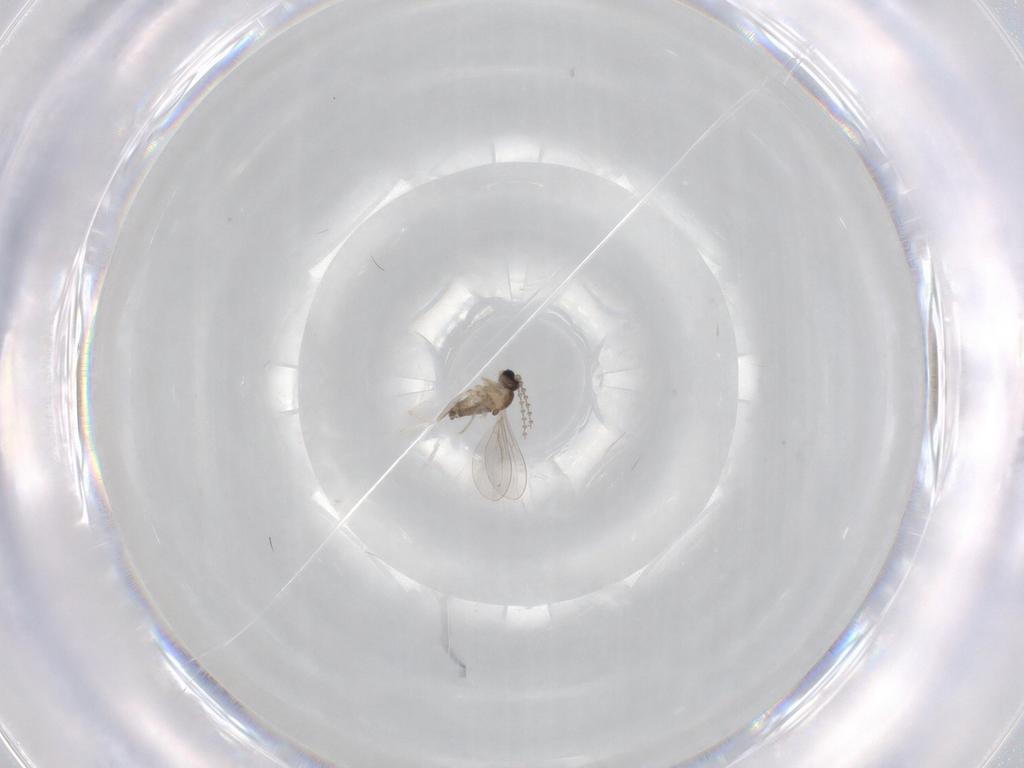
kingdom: Animalia
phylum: Arthropoda
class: Insecta
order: Diptera
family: Cecidomyiidae
